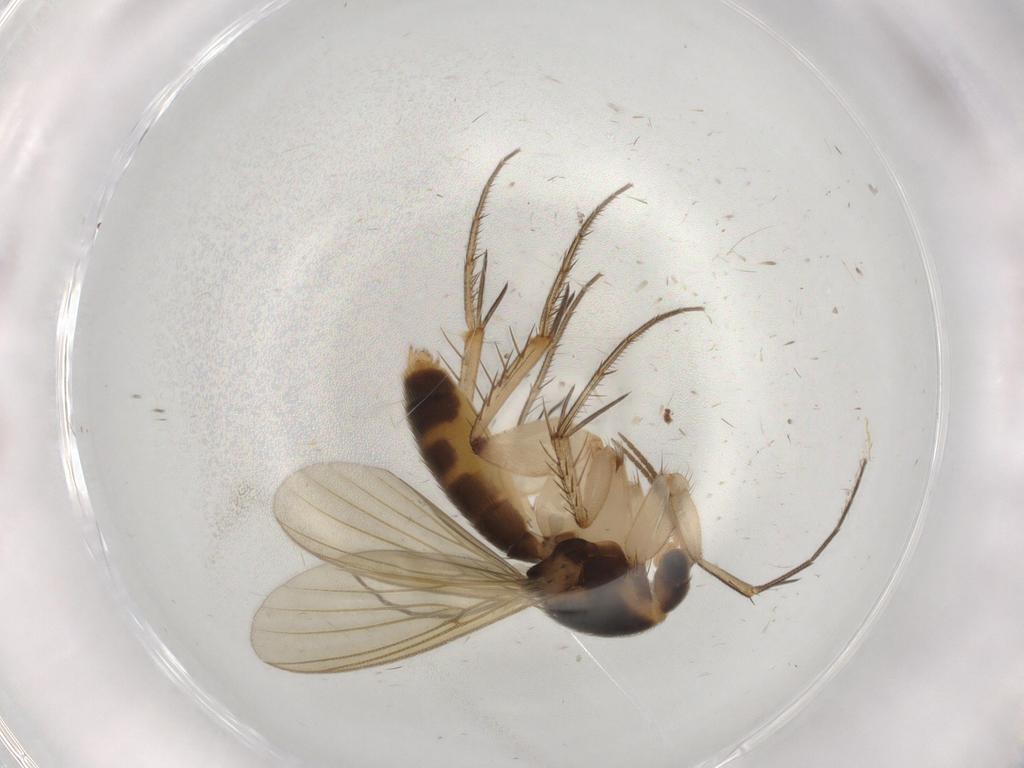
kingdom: Animalia
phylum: Arthropoda
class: Insecta
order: Diptera
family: Mycetophilidae
